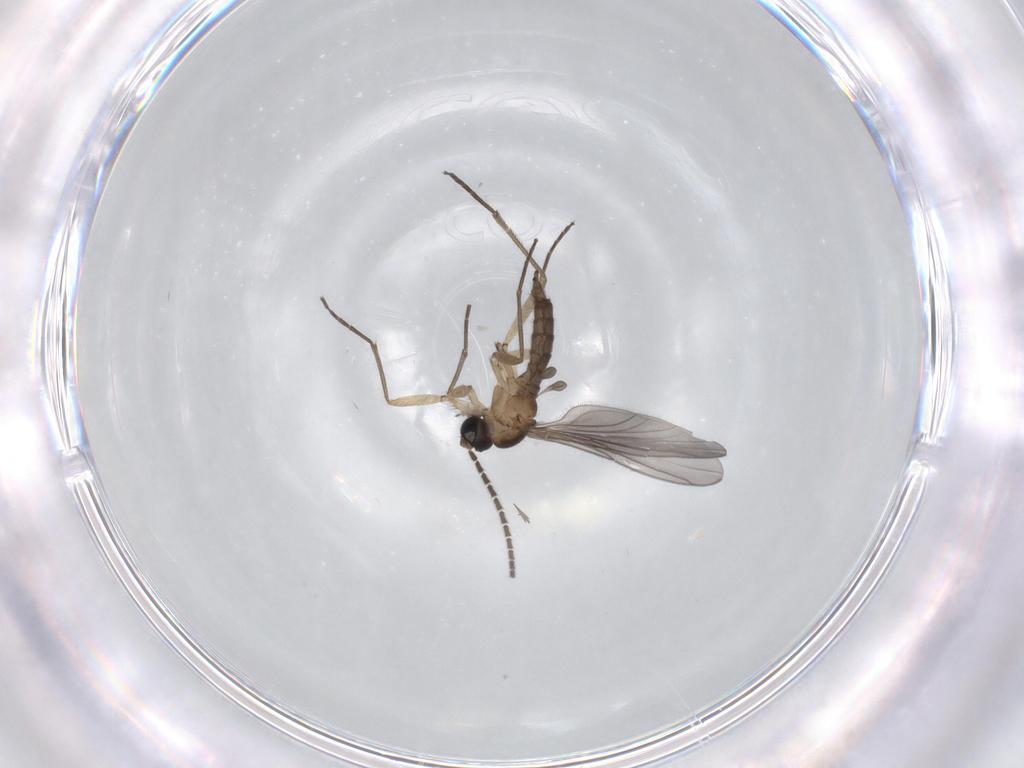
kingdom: Animalia
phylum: Arthropoda
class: Insecta
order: Diptera
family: Sciaridae
